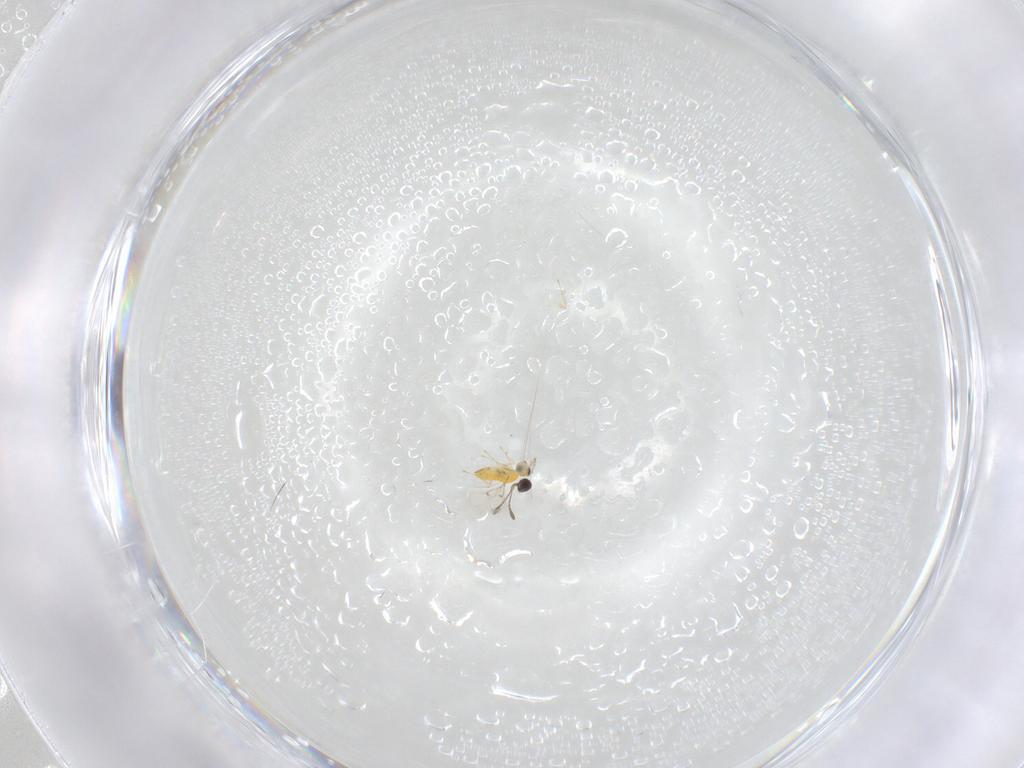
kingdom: Animalia
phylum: Arthropoda
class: Insecta
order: Hymenoptera
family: Trichogrammatidae
